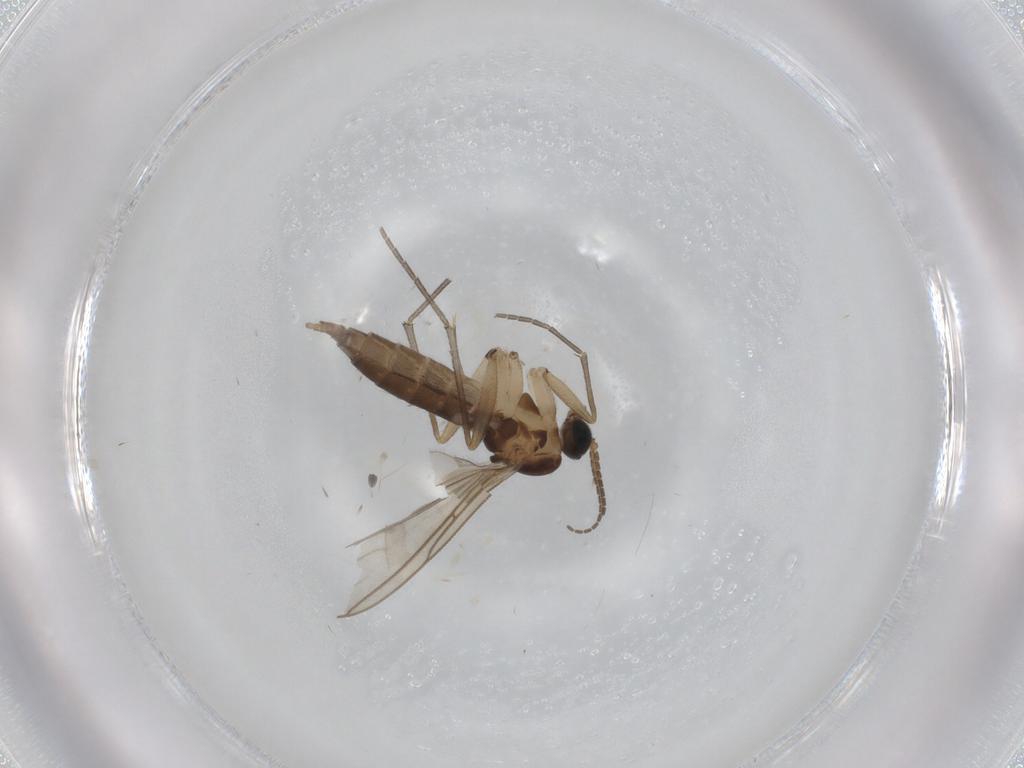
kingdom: Animalia
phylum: Arthropoda
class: Insecta
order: Diptera
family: Sciaridae
